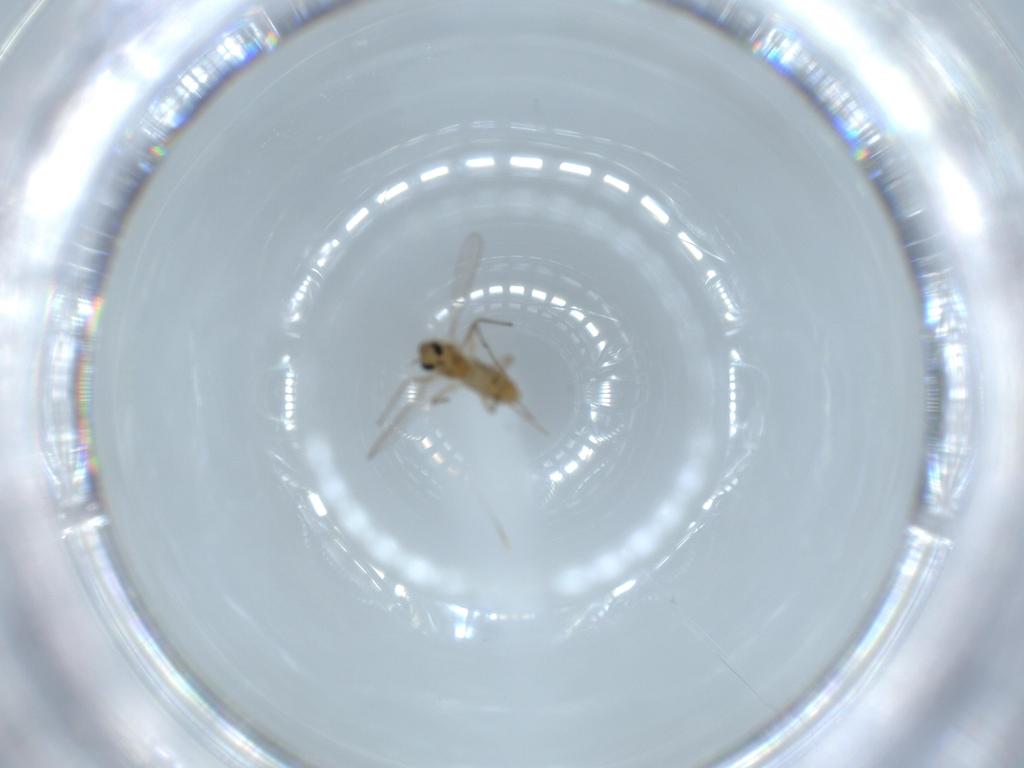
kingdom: Animalia
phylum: Arthropoda
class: Insecta
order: Diptera
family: Chironomidae
